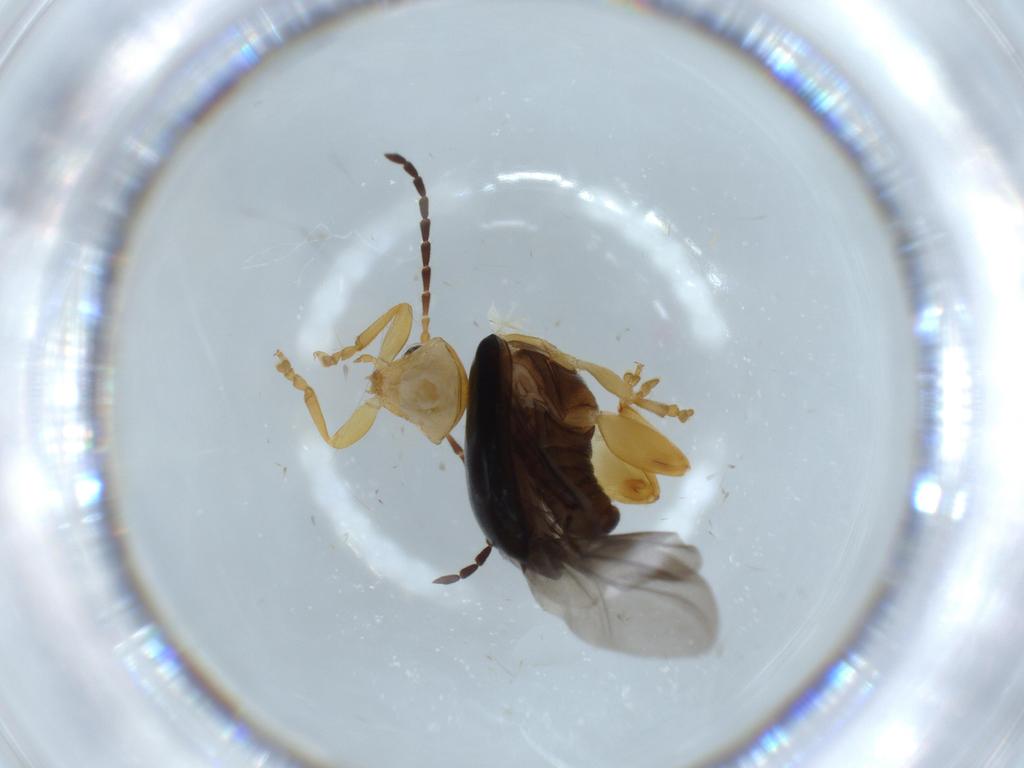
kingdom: Animalia
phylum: Arthropoda
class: Insecta
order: Coleoptera
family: Chrysomelidae
